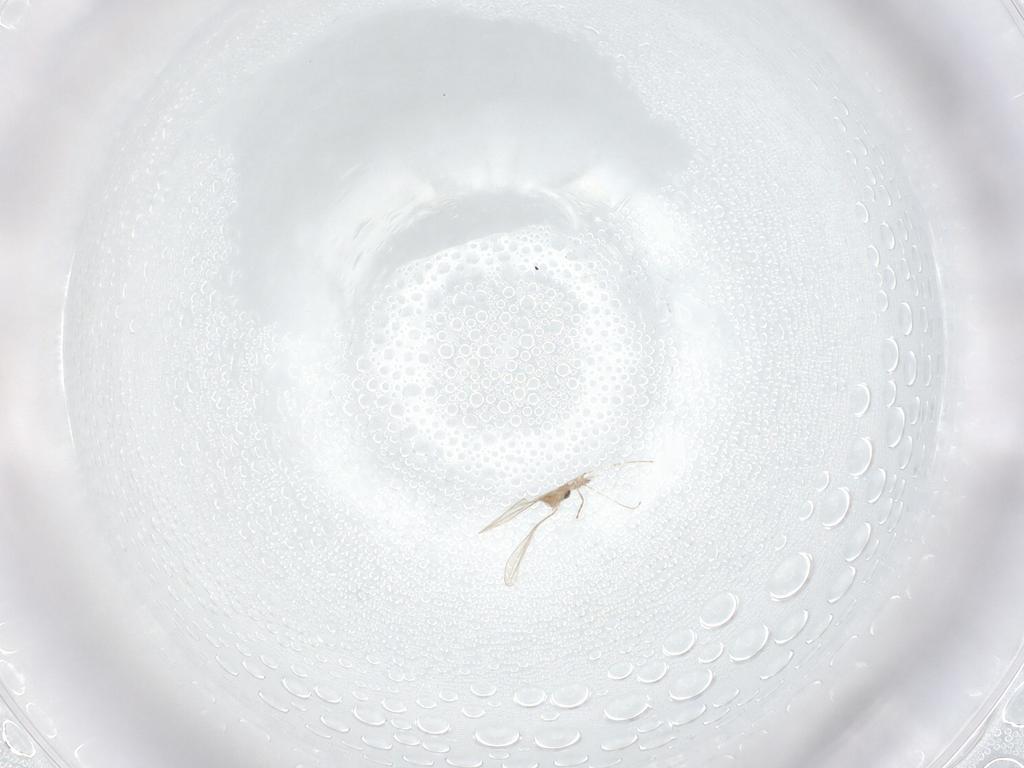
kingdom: Animalia
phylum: Arthropoda
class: Insecta
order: Diptera
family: Cecidomyiidae
